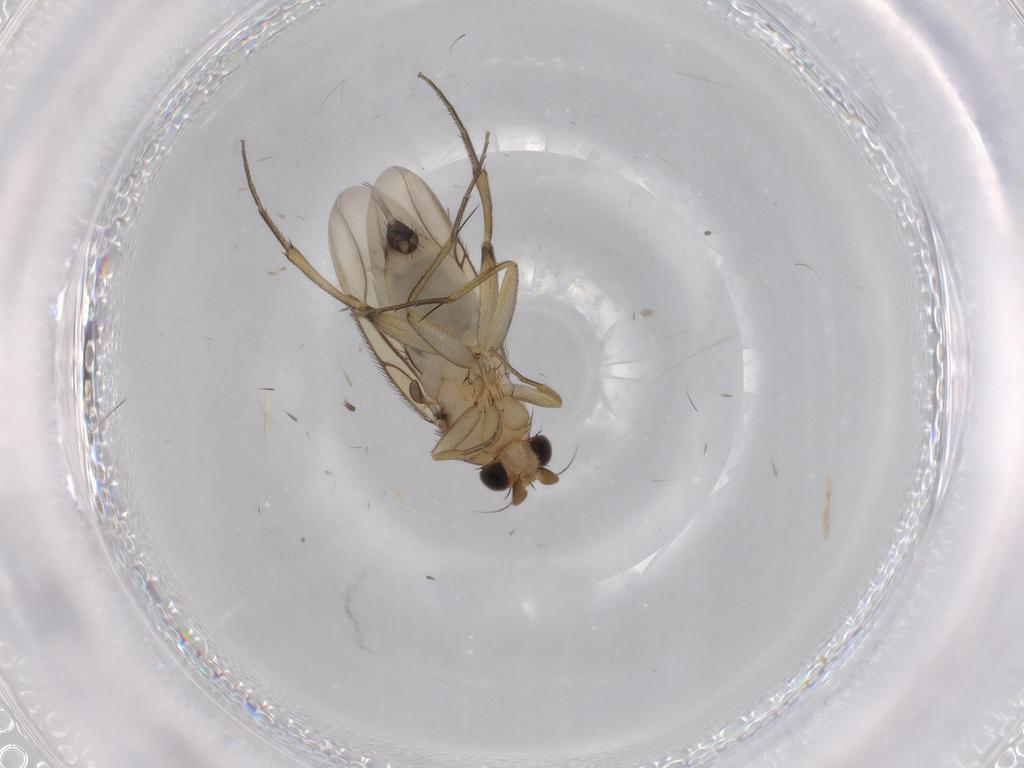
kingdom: Animalia
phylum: Arthropoda
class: Insecta
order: Diptera
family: Phoridae
